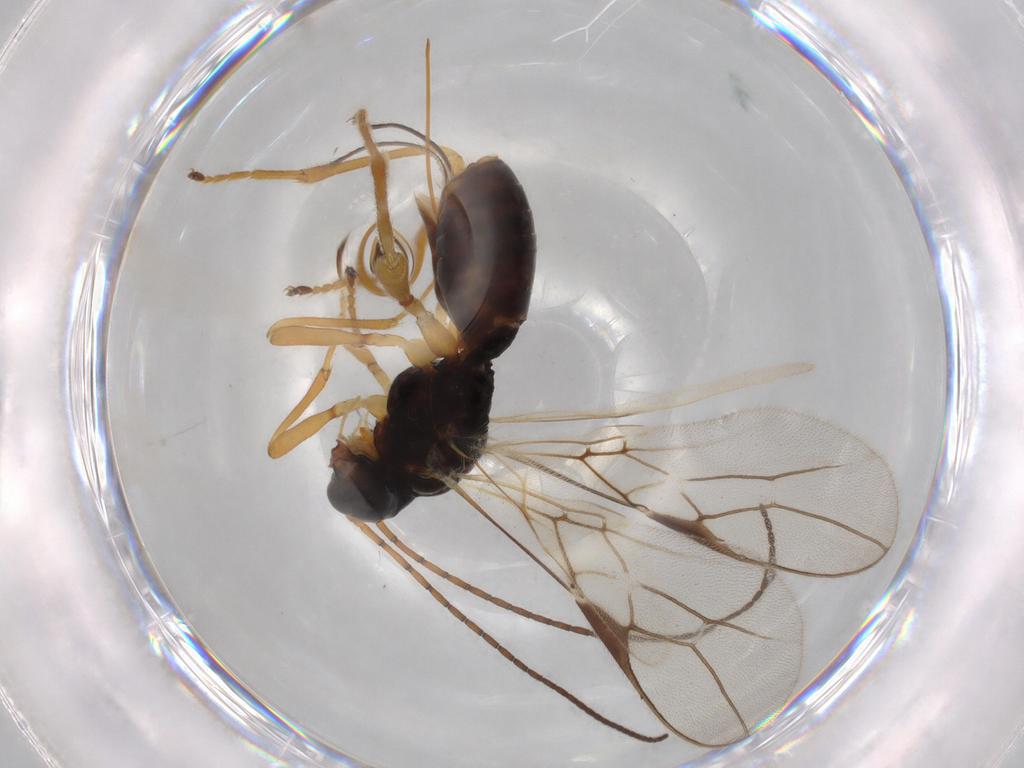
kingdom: Animalia
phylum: Arthropoda
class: Insecta
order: Hymenoptera
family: Braconidae
